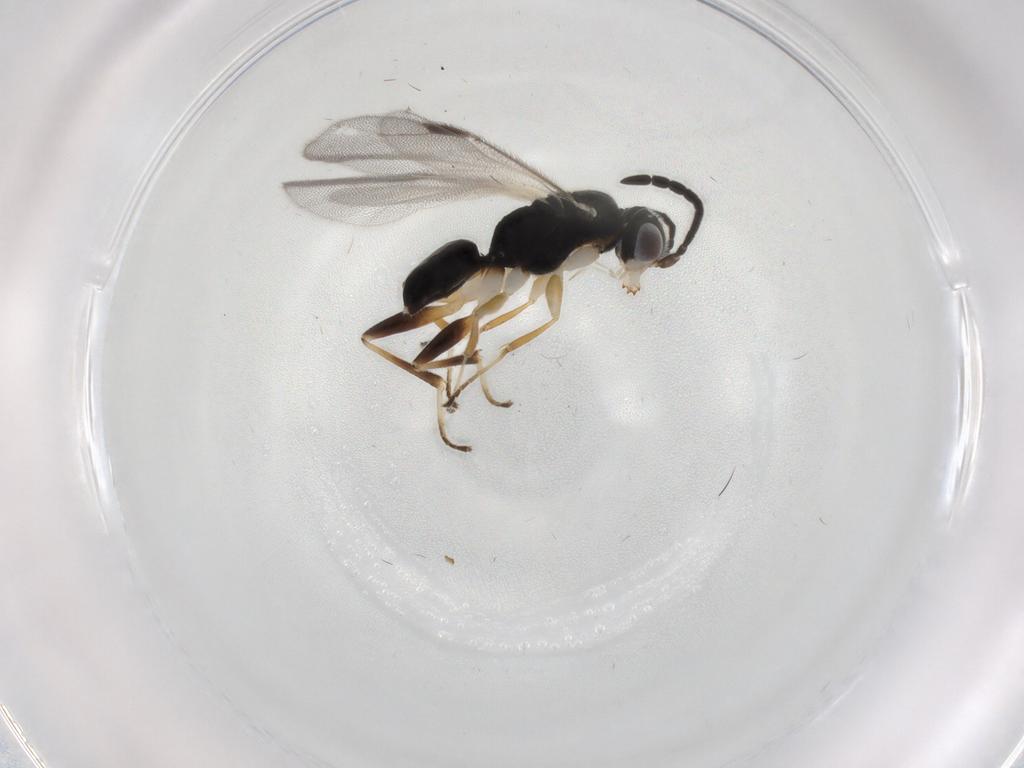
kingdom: Animalia
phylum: Arthropoda
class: Insecta
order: Hymenoptera
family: Dryinidae
